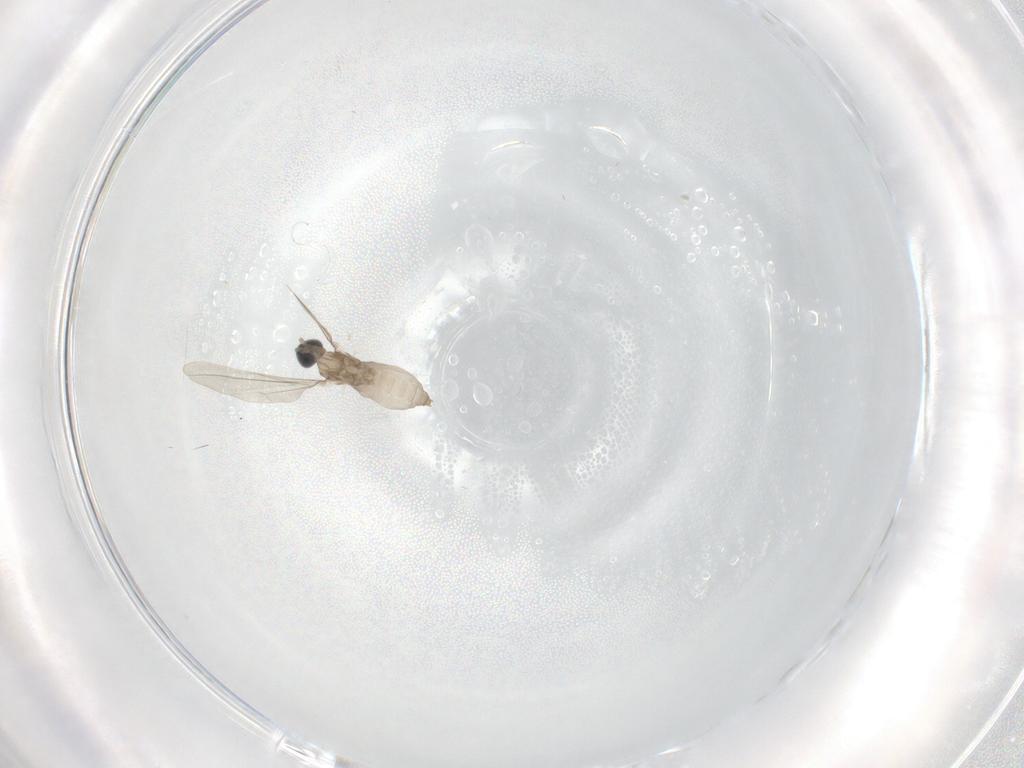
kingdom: Animalia
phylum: Arthropoda
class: Insecta
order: Diptera
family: Cecidomyiidae
